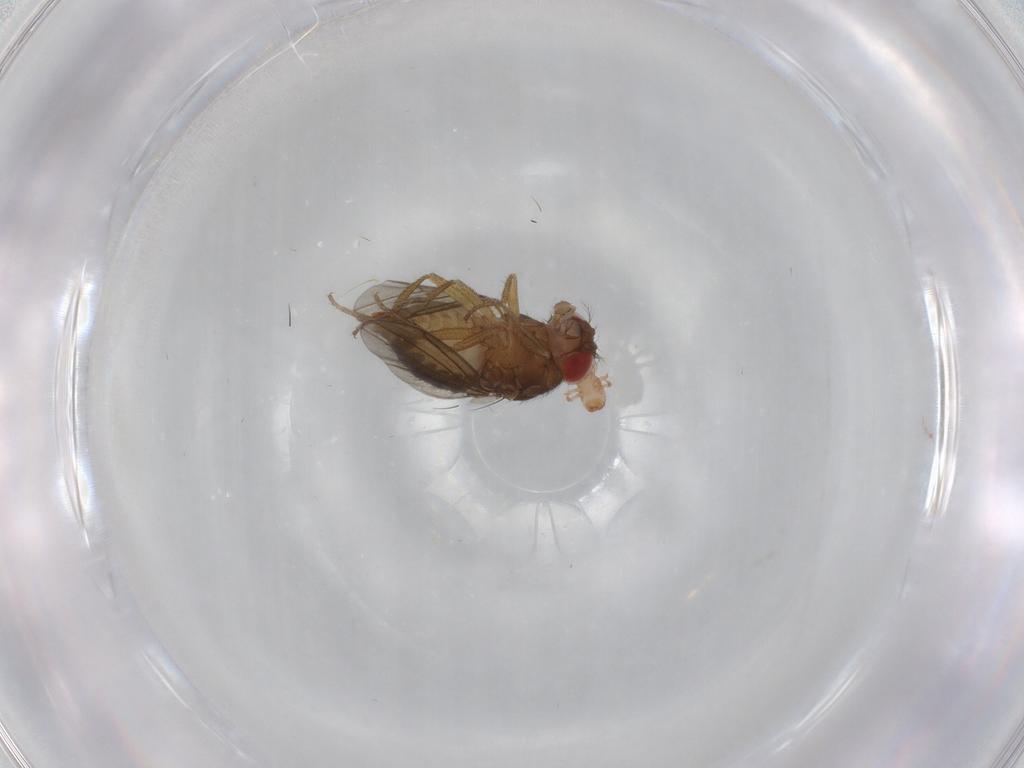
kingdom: Animalia
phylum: Arthropoda
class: Insecta
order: Diptera
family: Drosophilidae
